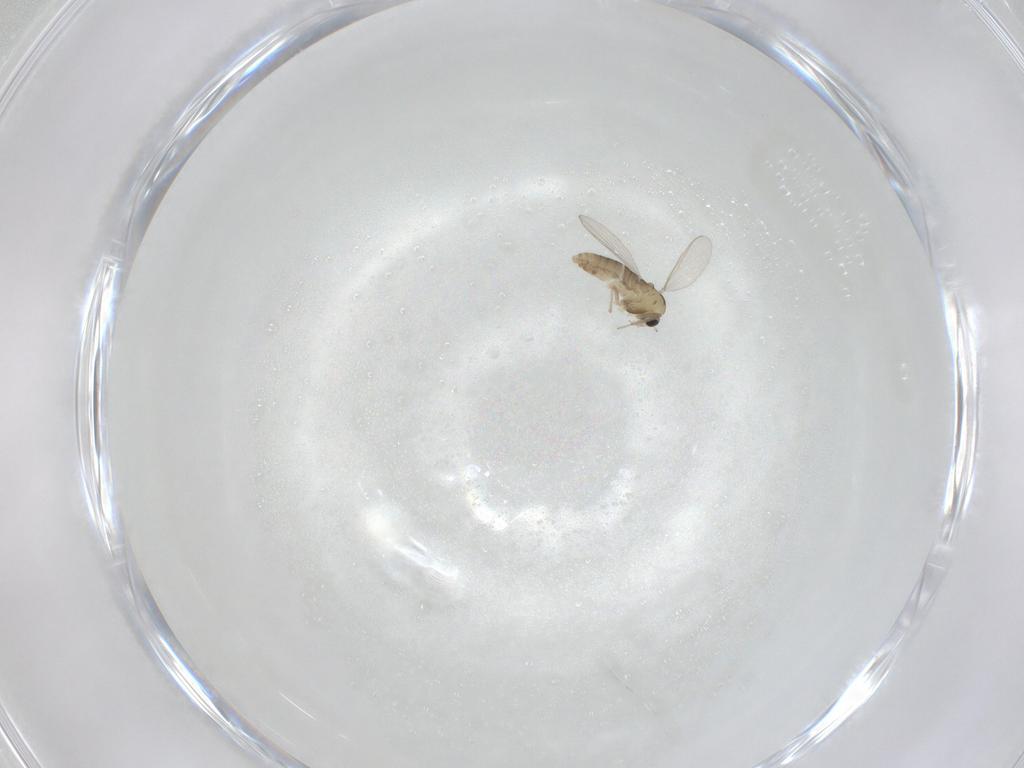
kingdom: Animalia
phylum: Arthropoda
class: Insecta
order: Diptera
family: Chironomidae
